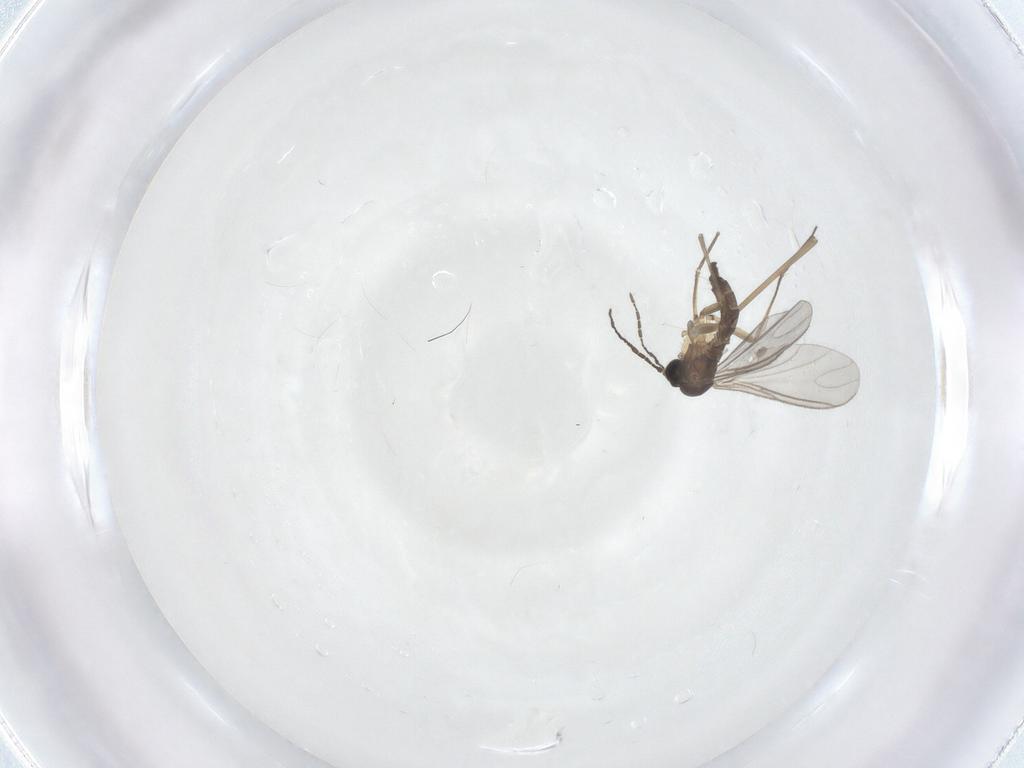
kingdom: Animalia
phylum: Arthropoda
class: Insecta
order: Diptera
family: Sciaridae
